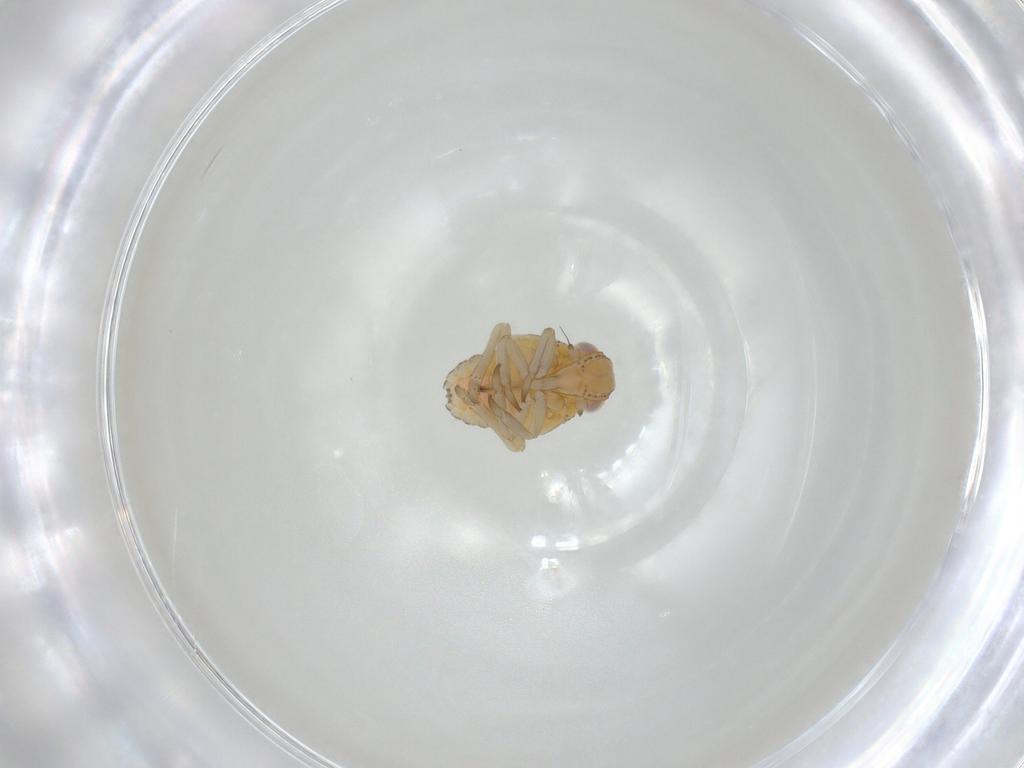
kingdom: Animalia
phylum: Arthropoda
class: Insecta
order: Hemiptera
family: Tropiduchidae
